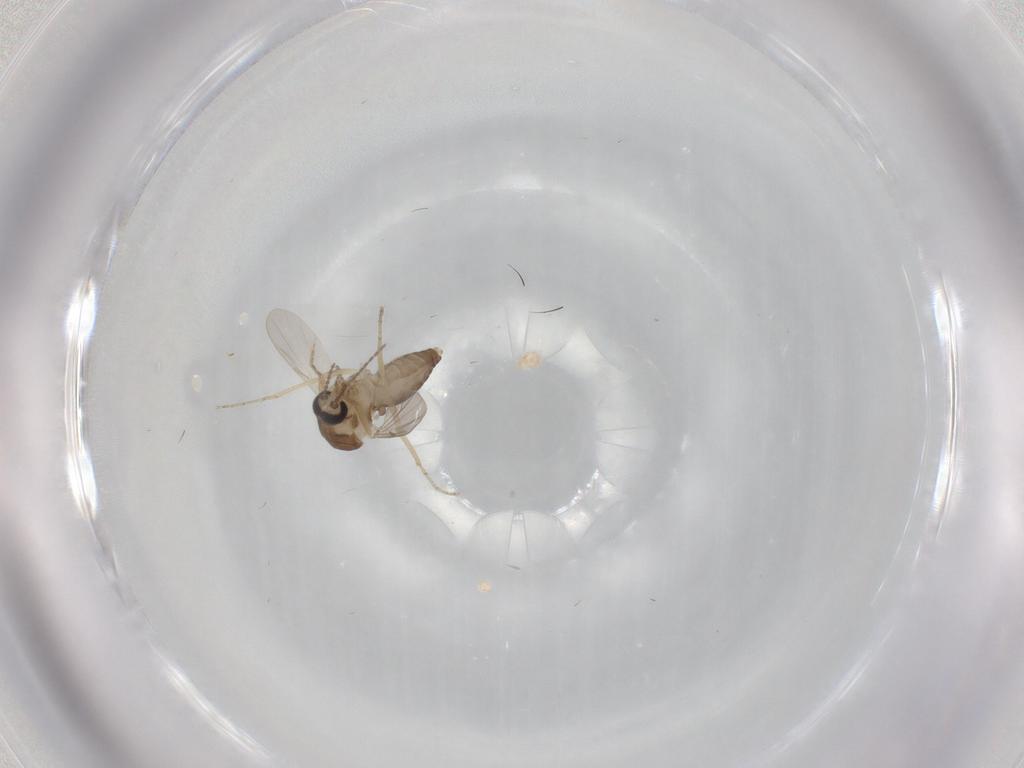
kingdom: Animalia
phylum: Arthropoda
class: Insecta
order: Diptera
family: Ceratopogonidae
